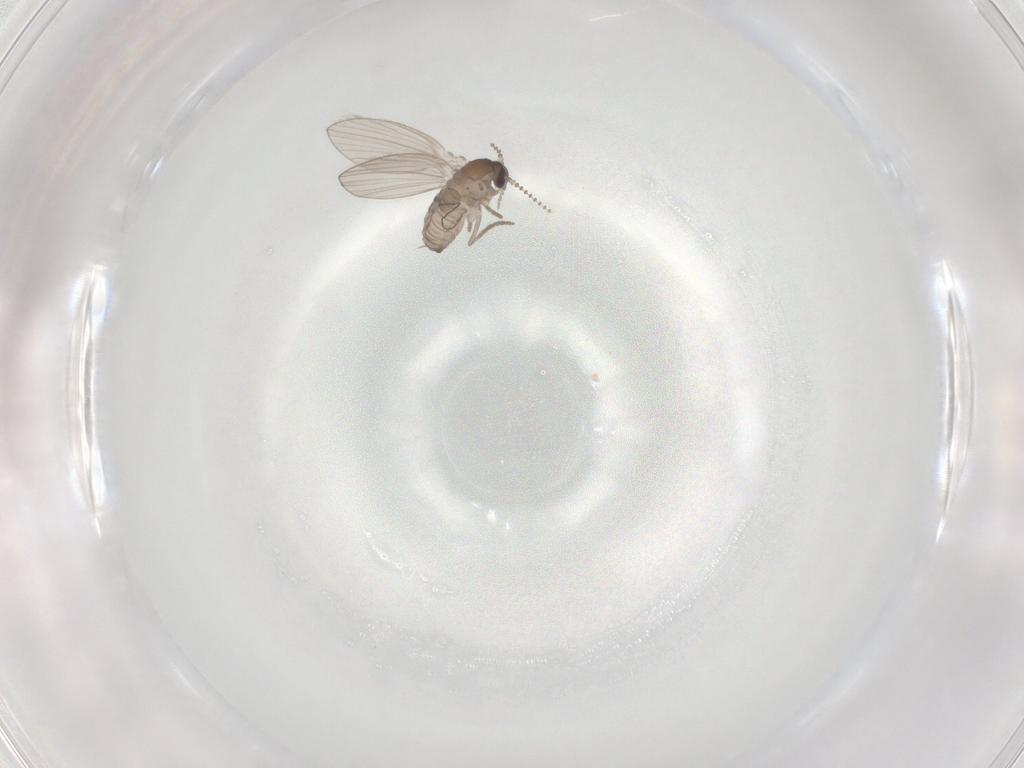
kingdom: Animalia
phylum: Arthropoda
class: Insecta
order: Diptera
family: Psychodidae
